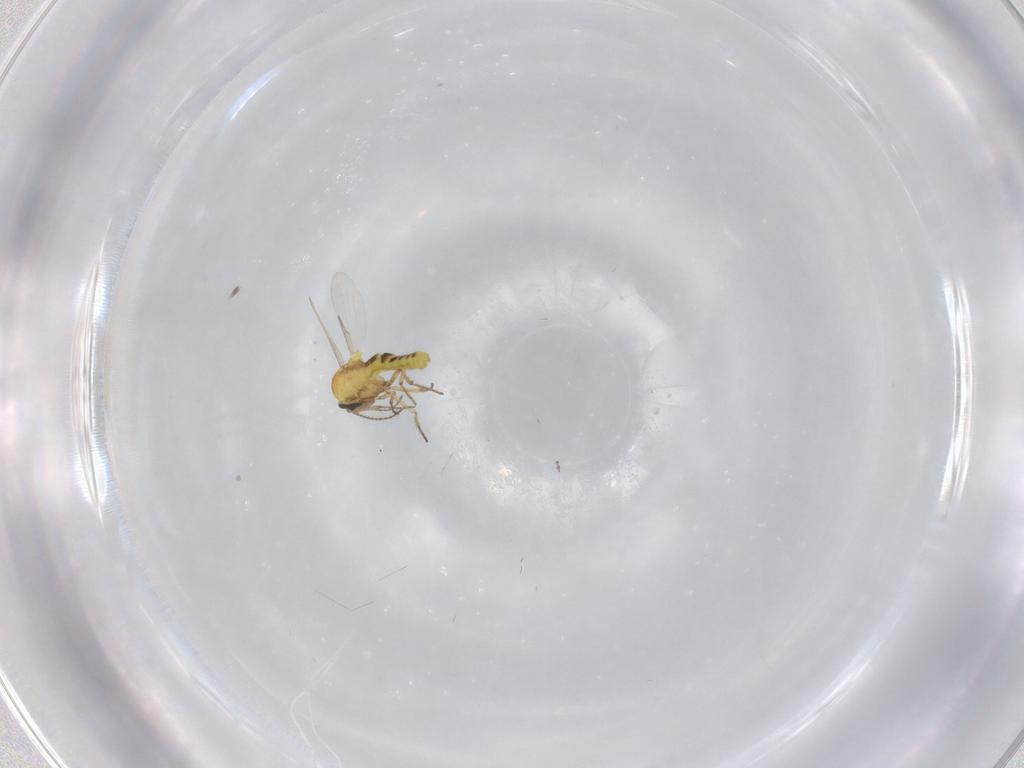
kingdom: Animalia
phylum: Arthropoda
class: Insecta
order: Diptera
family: Ceratopogonidae
